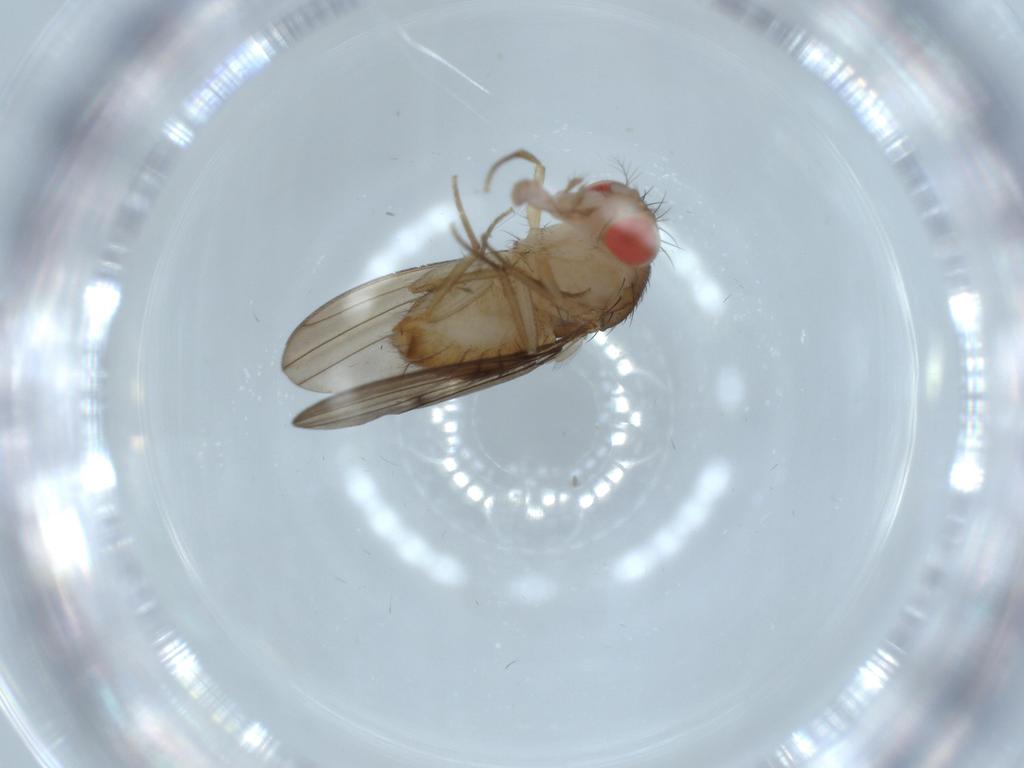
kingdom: Animalia
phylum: Arthropoda
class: Insecta
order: Diptera
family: Drosophilidae
